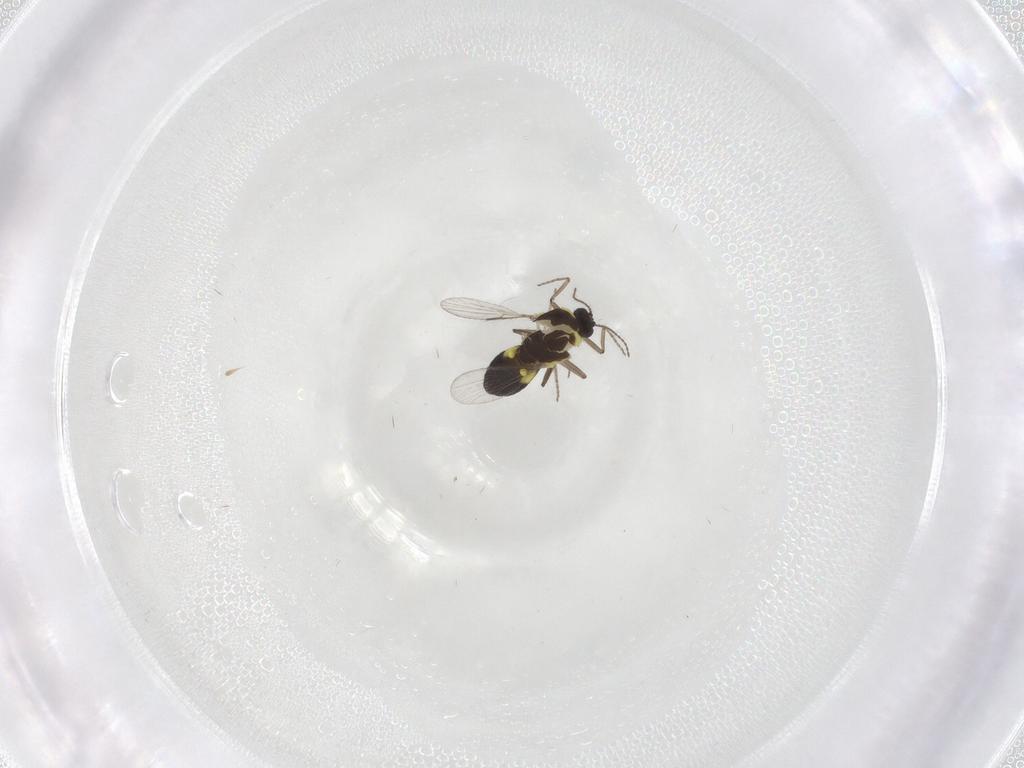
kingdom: Animalia
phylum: Arthropoda
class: Insecta
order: Diptera
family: Ceratopogonidae
